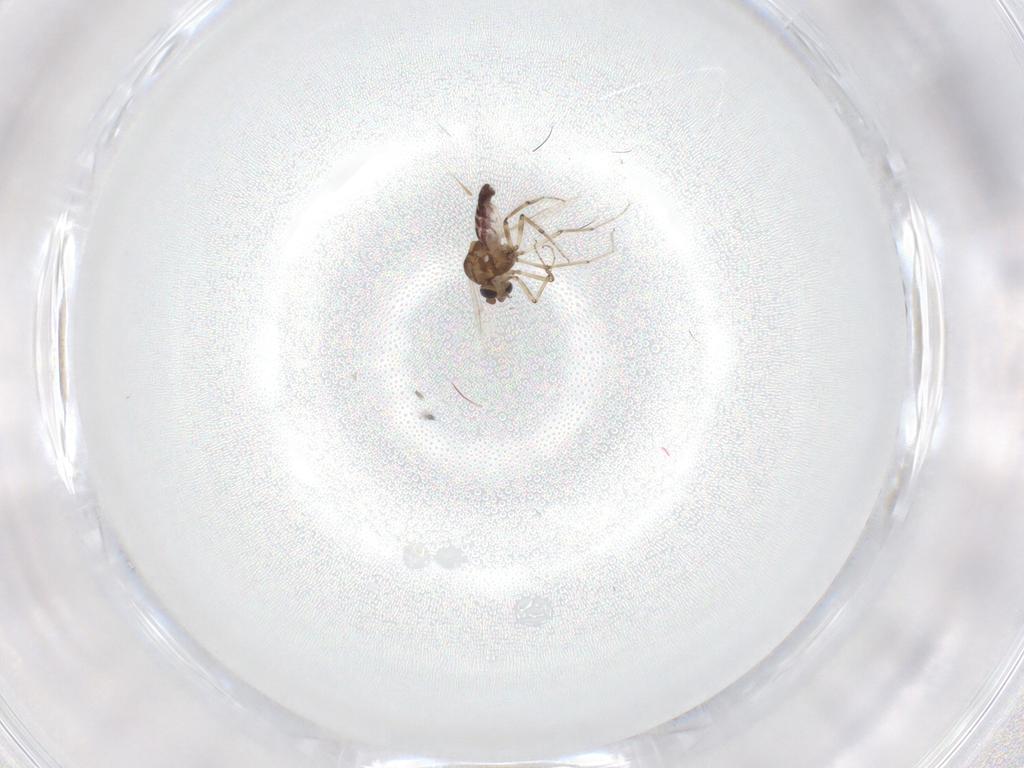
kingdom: Animalia
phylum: Arthropoda
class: Insecta
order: Diptera
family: Ceratopogonidae
